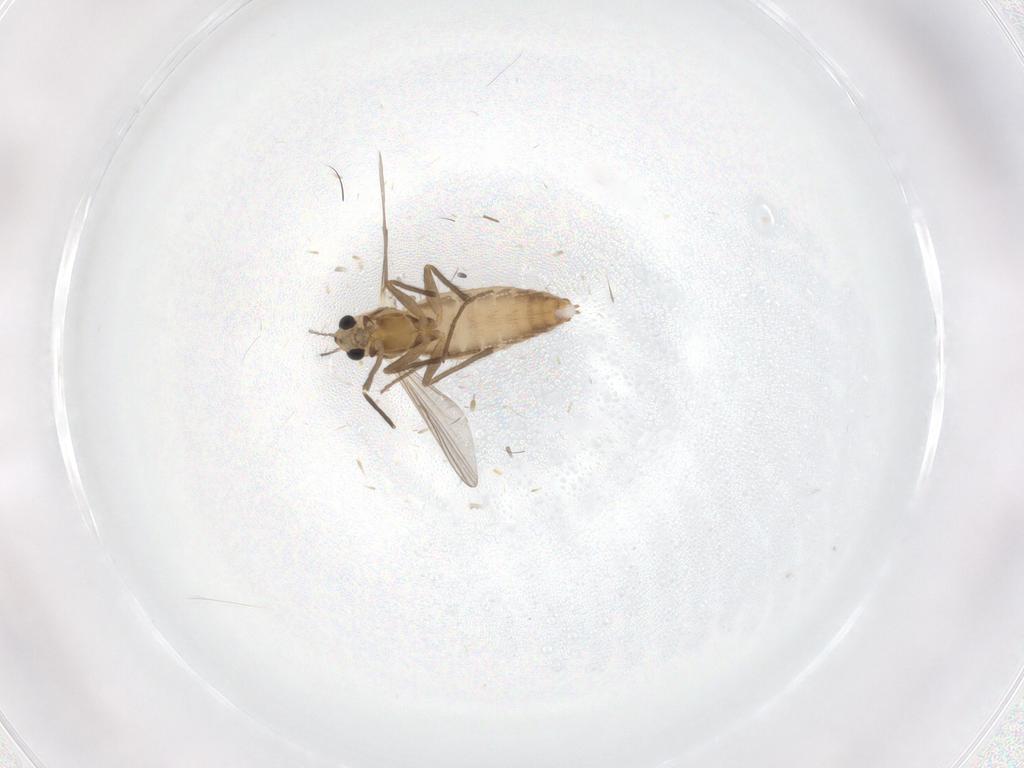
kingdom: Animalia
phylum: Arthropoda
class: Insecta
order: Diptera
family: Chironomidae
